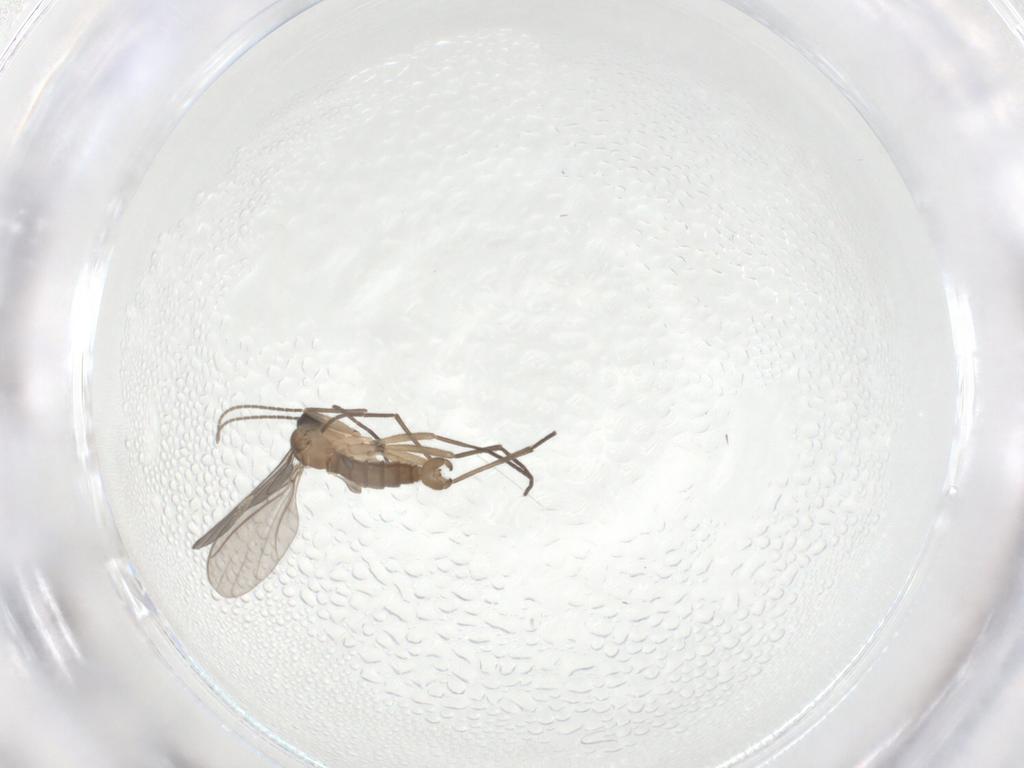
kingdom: Animalia
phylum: Arthropoda
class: Insecta
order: Diptera
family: Sciaridae
